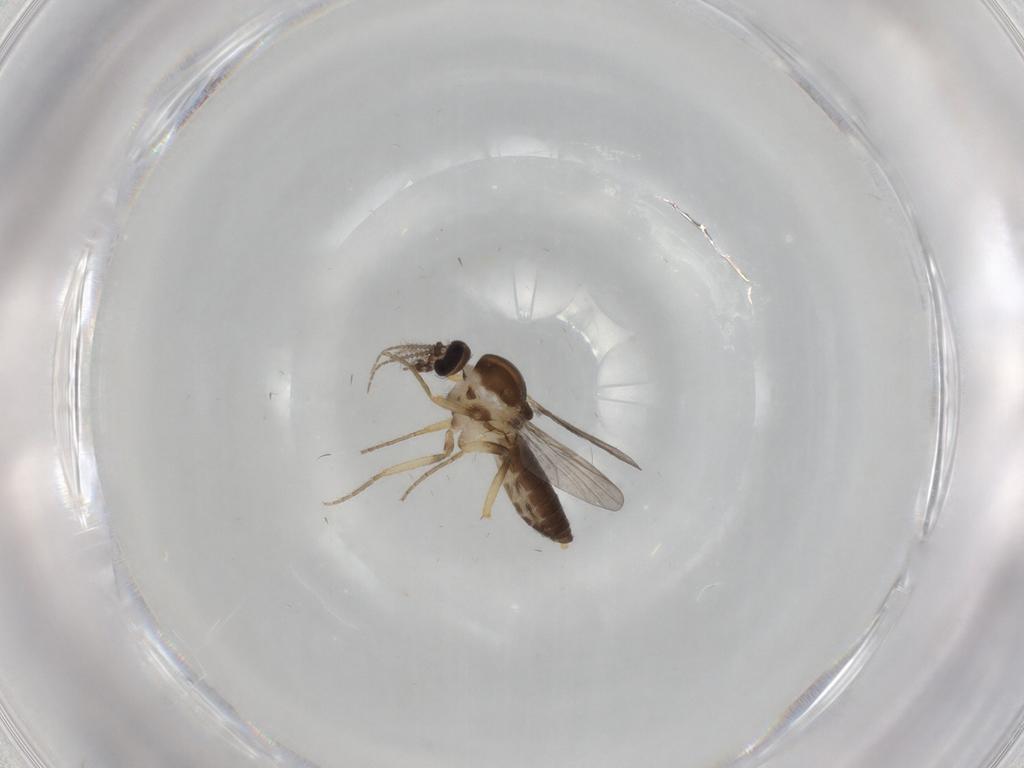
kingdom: Animalia
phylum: Arthropoda
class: Insecta
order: Diptera
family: Ceratopogonidae
